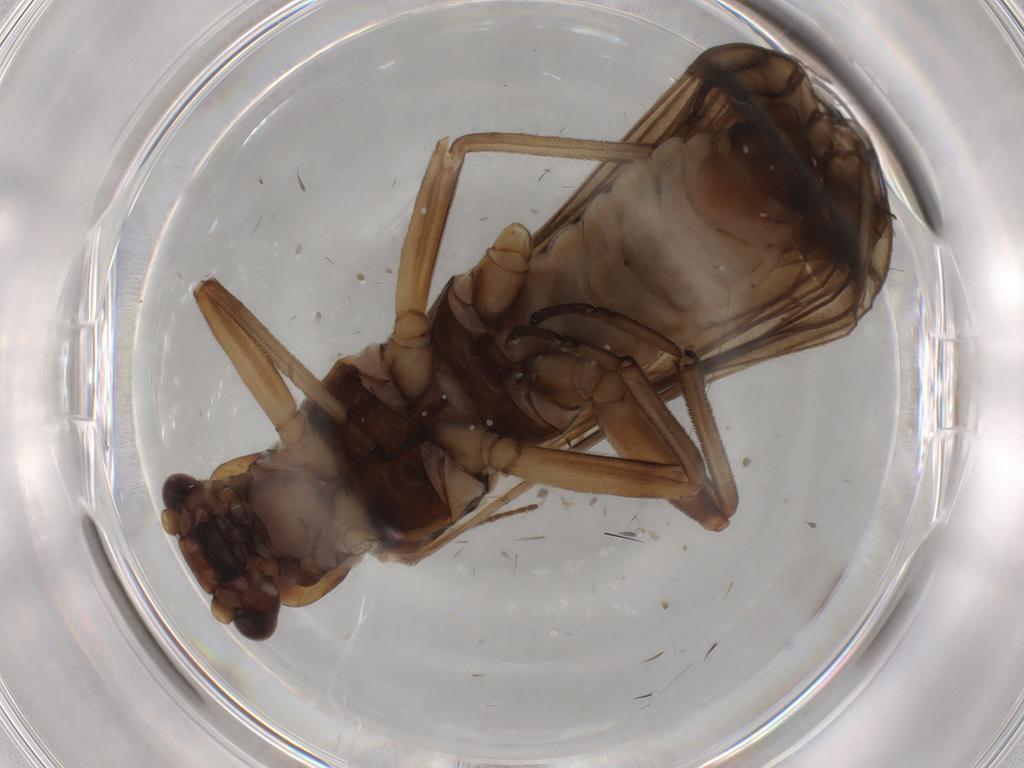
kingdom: Animalia
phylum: Arthropoda
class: Insecta
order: Plecoptera
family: Nemouridae
